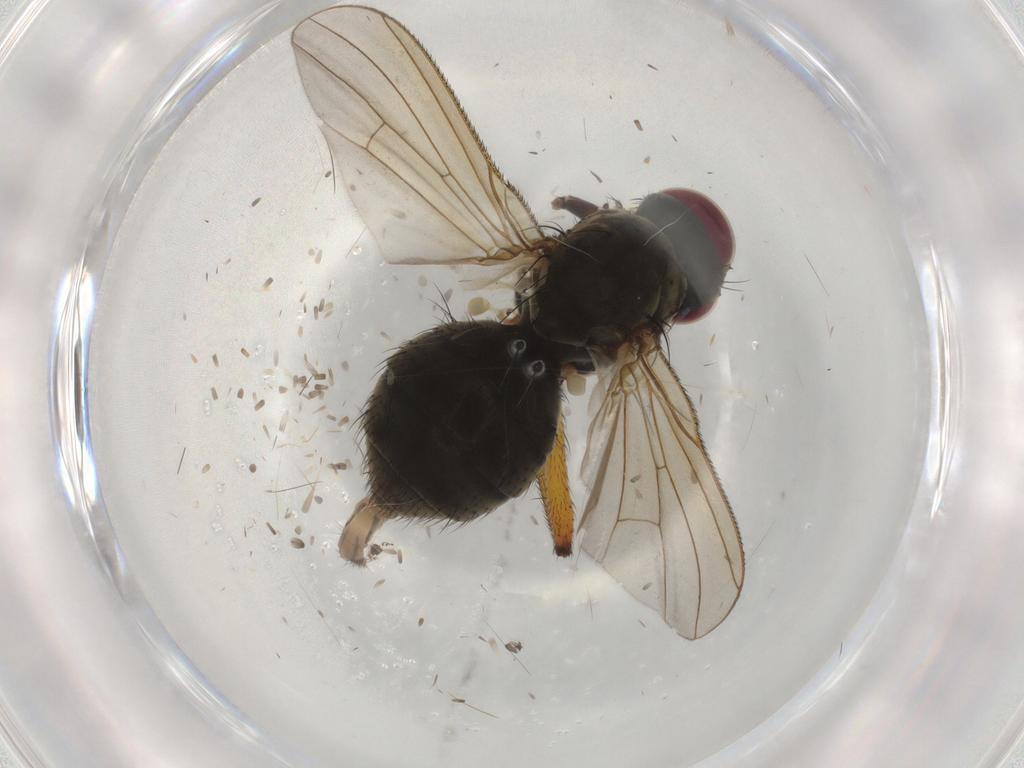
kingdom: Animalia
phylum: Arthropoda
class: Insecta
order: Diptera
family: Muscidae
